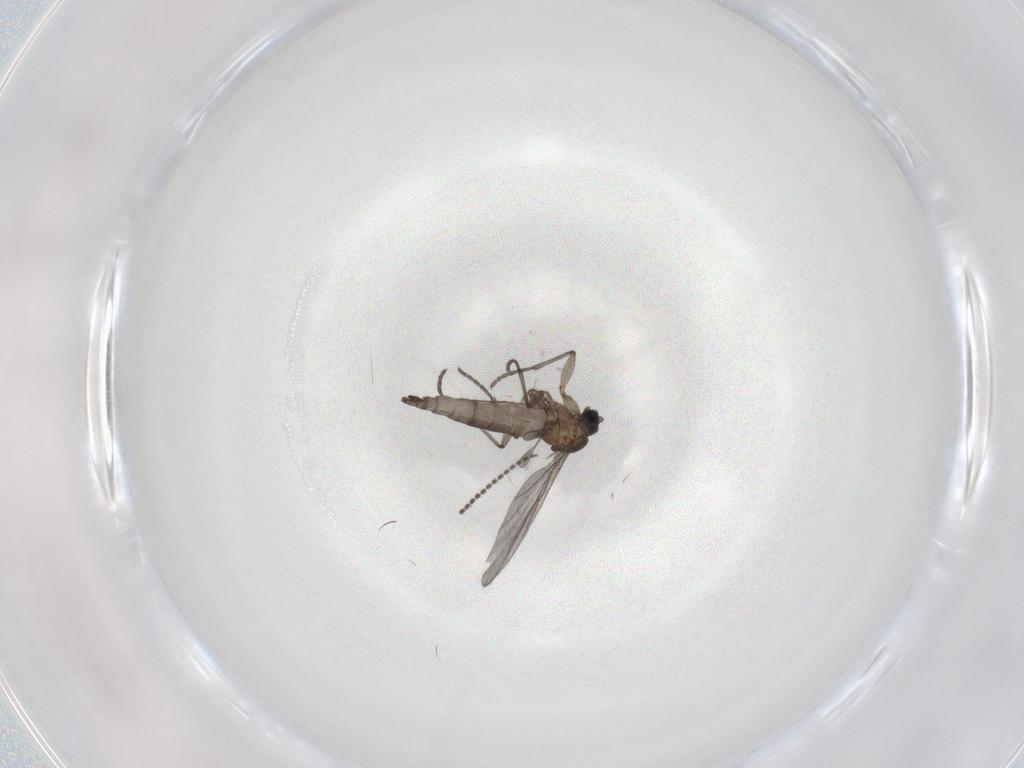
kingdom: Animalia
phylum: Arthropoda
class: Insecta
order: Diptera
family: Sciaridae
